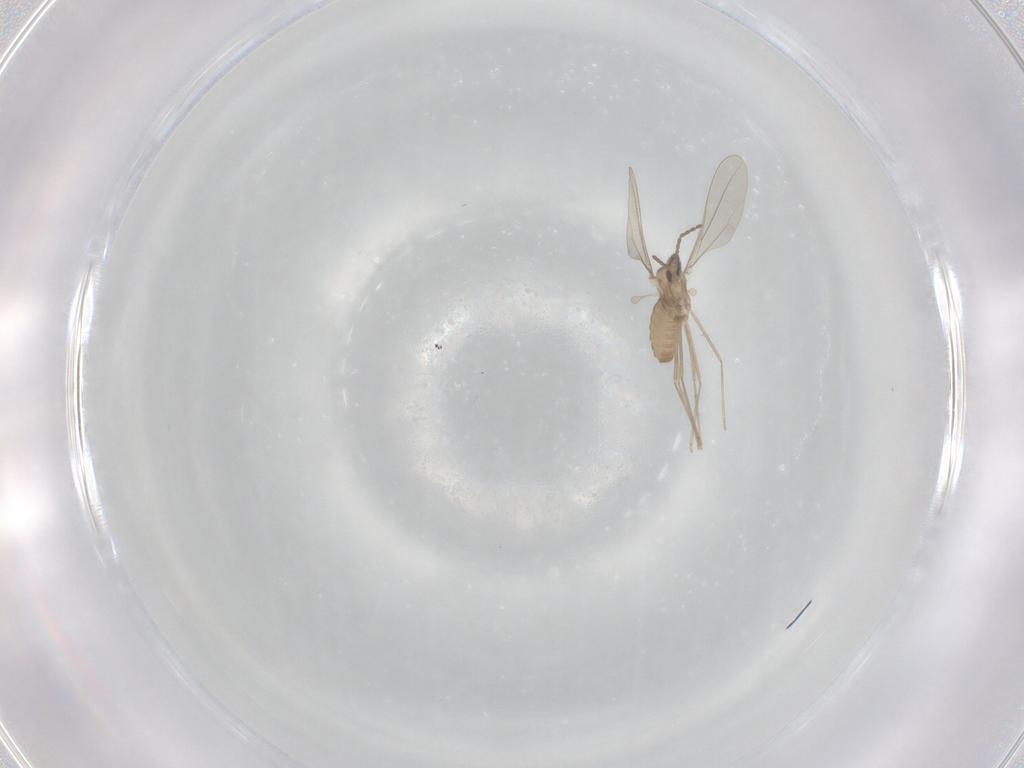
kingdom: Animalia
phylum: Arthropoda
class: Insecta
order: Diptera
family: Cecidomyiidae
